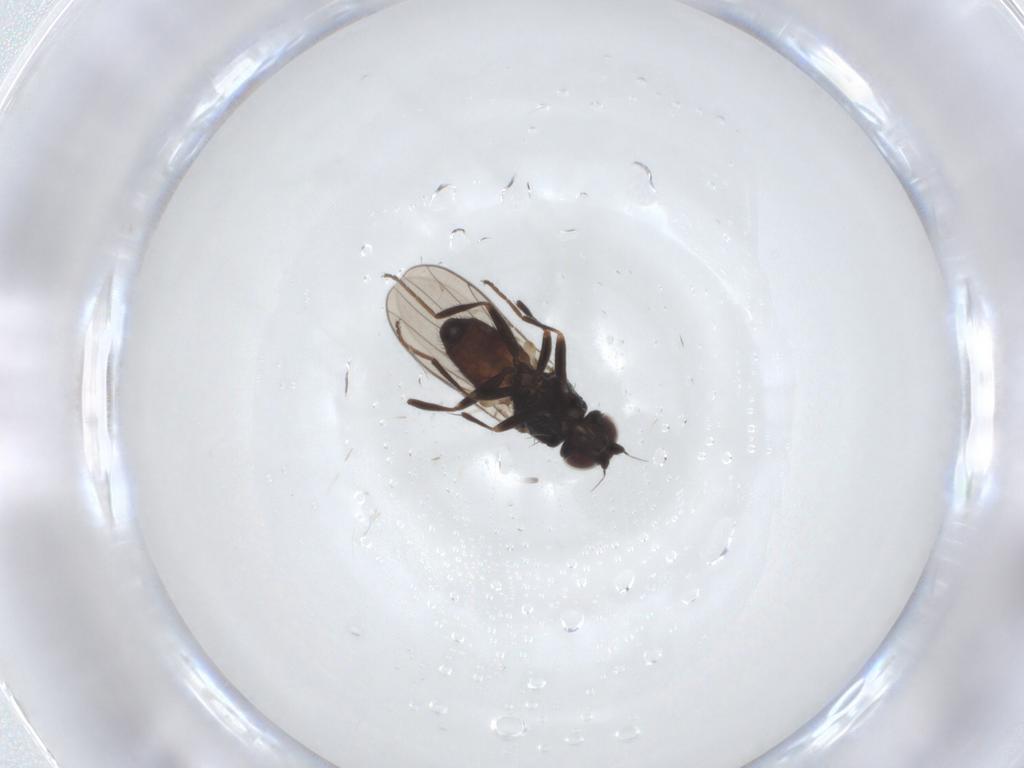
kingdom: Animalia
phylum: Arthropoda
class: Insecta
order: Diptera
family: Chloropidae
